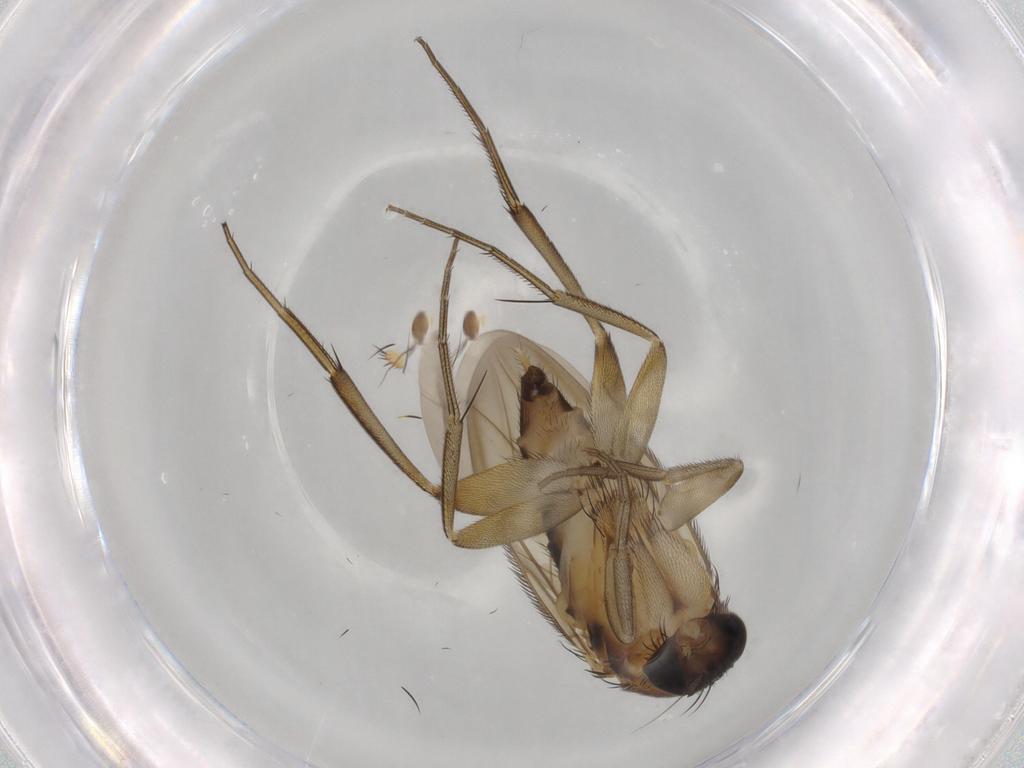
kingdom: Animalia
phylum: Arthropoda
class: Insecta
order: Diptera
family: Phoridae
